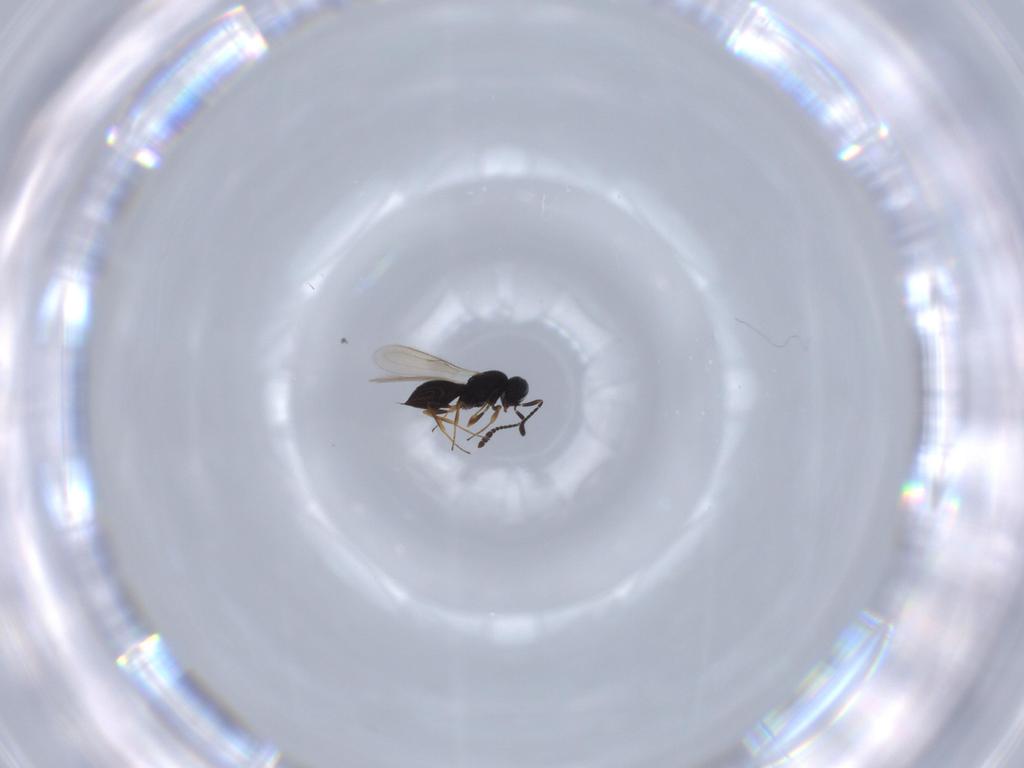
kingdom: Animalia
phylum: Arthropoda
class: Insecta
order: Hymenoptera
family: Scelionidae
